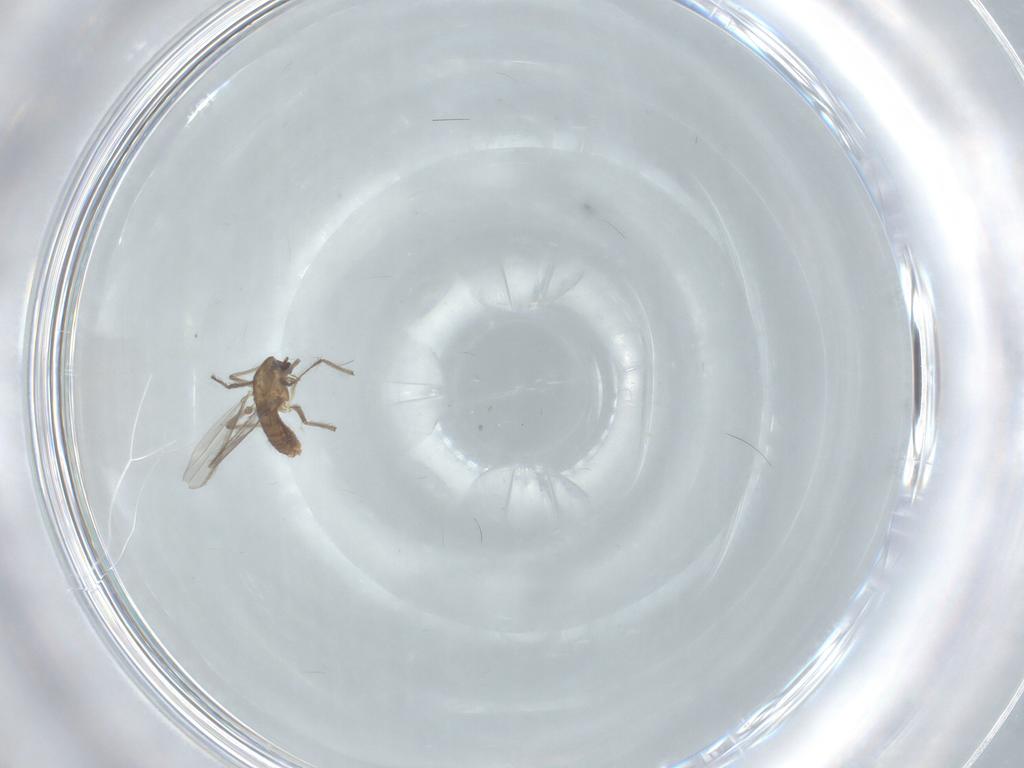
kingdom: Animalia
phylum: Arthropoda
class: Insecta
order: Diptera
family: Chironomidae
